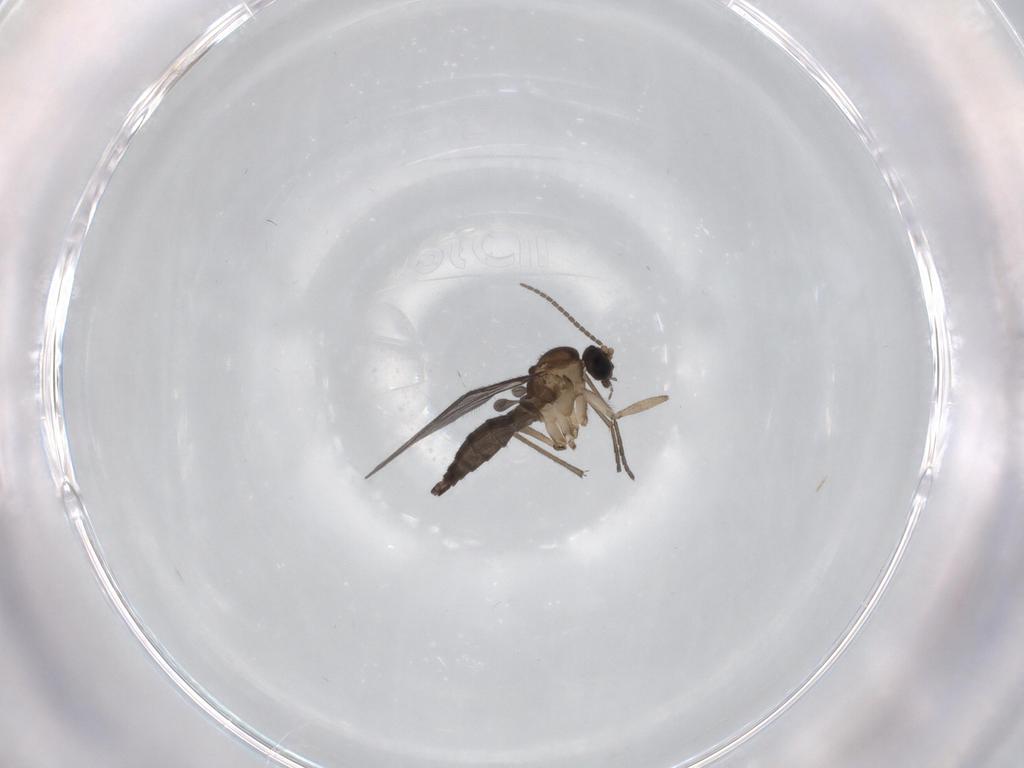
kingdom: Animalia
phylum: Arthropoda
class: Insecta
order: Diptera
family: Sciaridae
